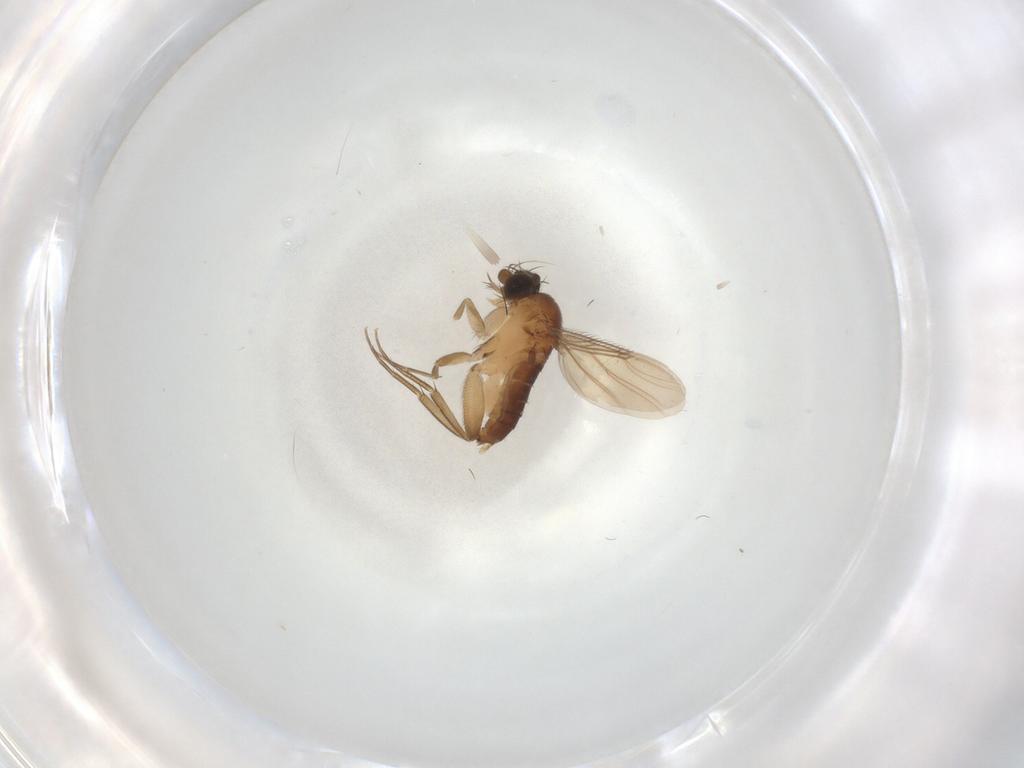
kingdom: Animalia
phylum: Arthropoda
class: Insecta
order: Diptera
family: Phoridae
